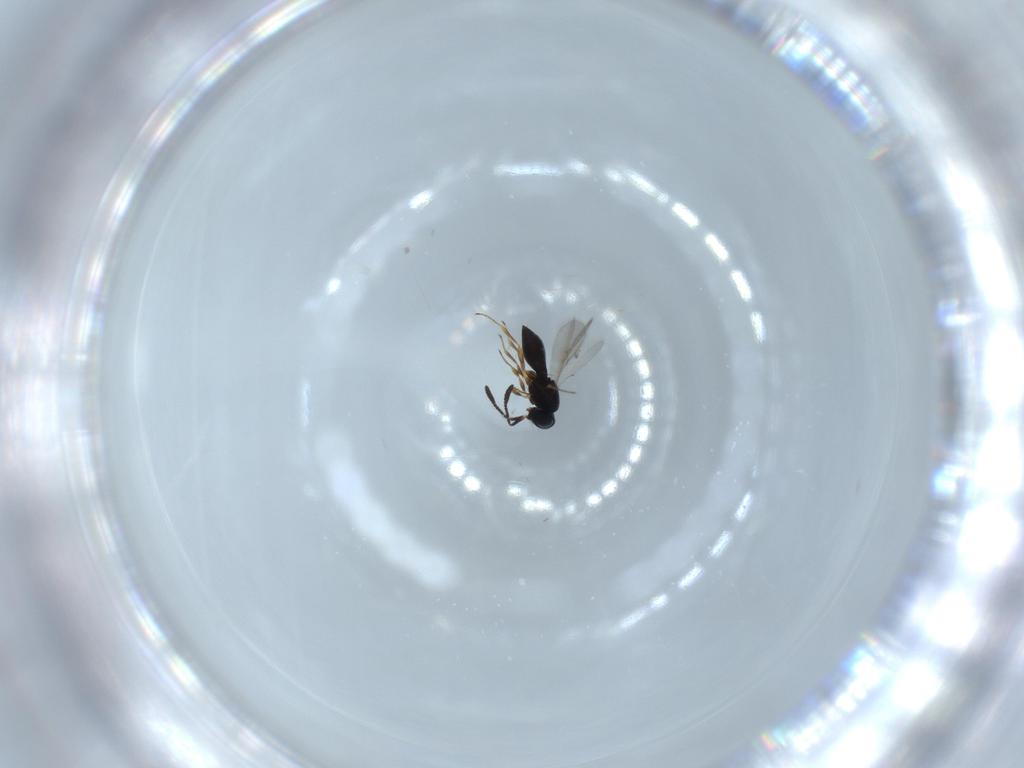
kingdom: Animalia
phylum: Arthropoda
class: Insecta
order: Hymenoptera
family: Scelionidae
